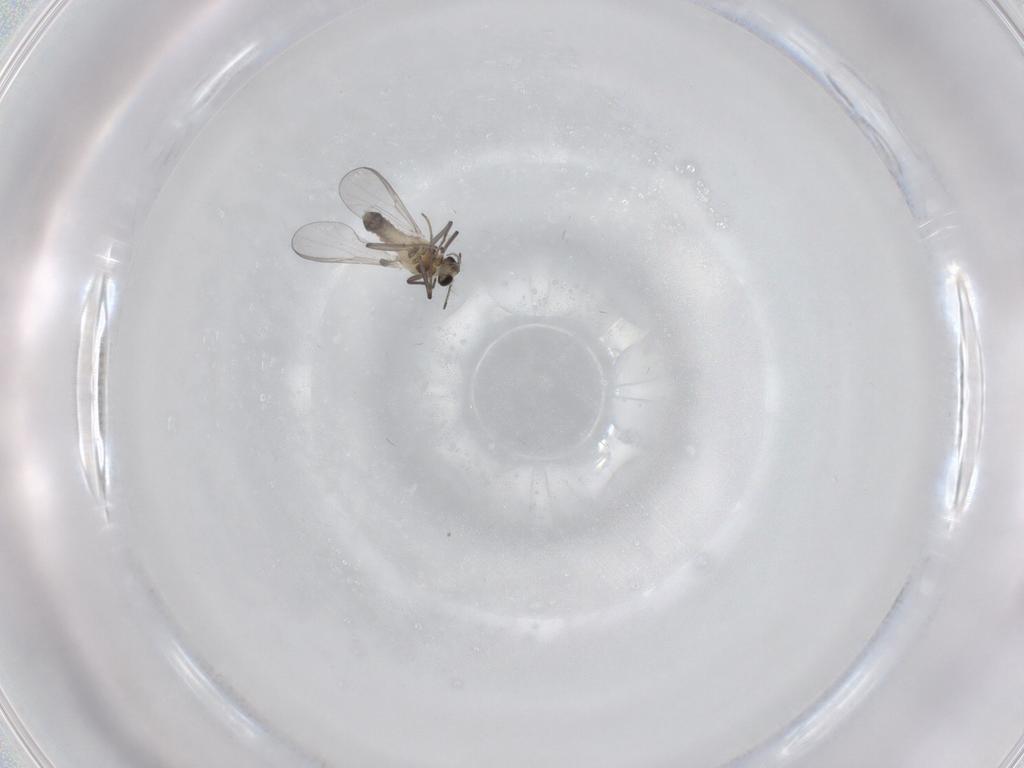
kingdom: Animalia
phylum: Arthropoda
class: Insecta
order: Diptera
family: Chironomidae
